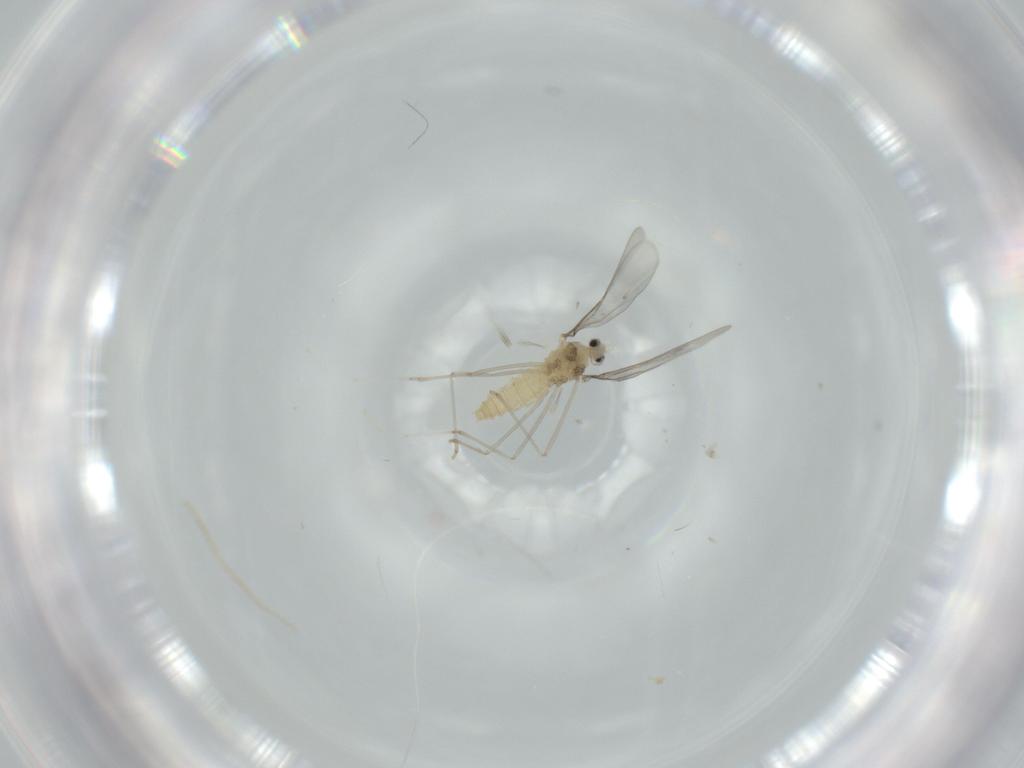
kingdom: Animalia
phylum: Arthropoda
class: Insecta
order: Diptera
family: Cecidomyiidae
